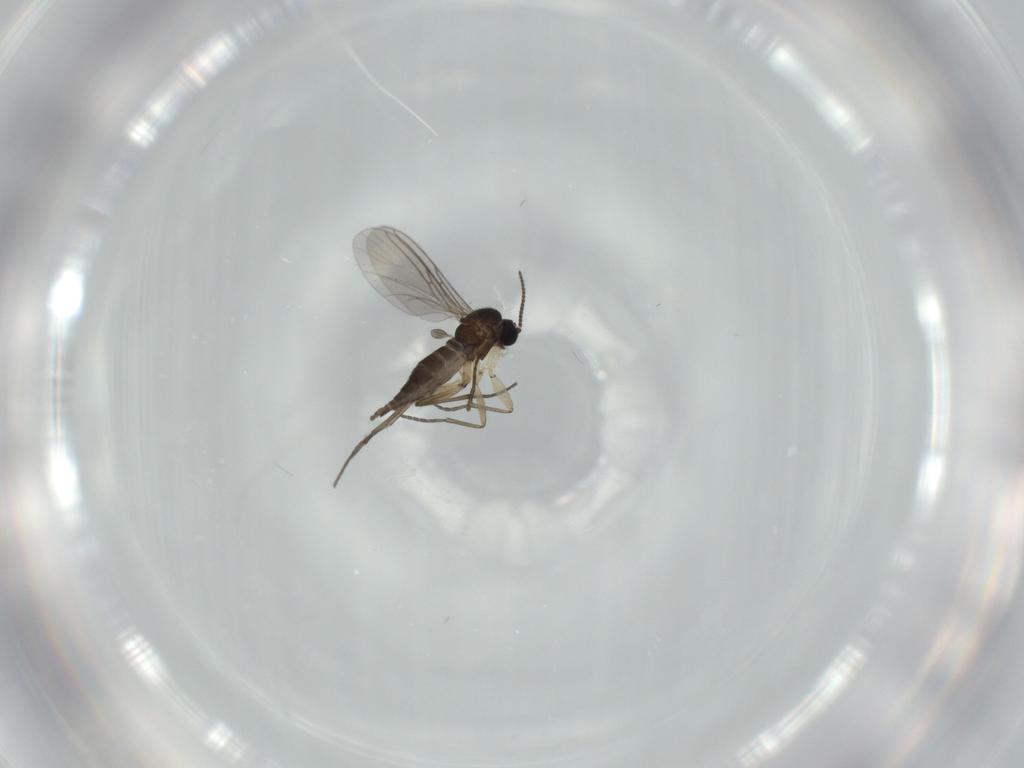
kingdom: Animalia
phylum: Arthropoda
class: Insecta
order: Diptera
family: Sciaridae
